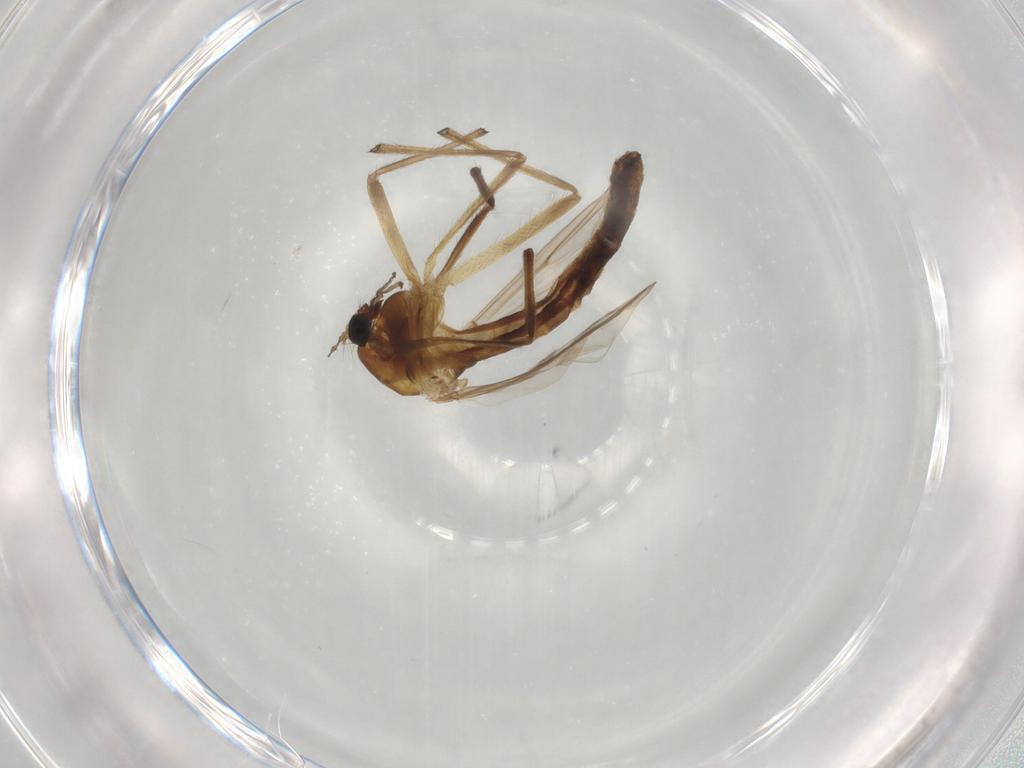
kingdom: Animalia
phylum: Arthropoda
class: Insecta
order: Diptera
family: Chironomidae
